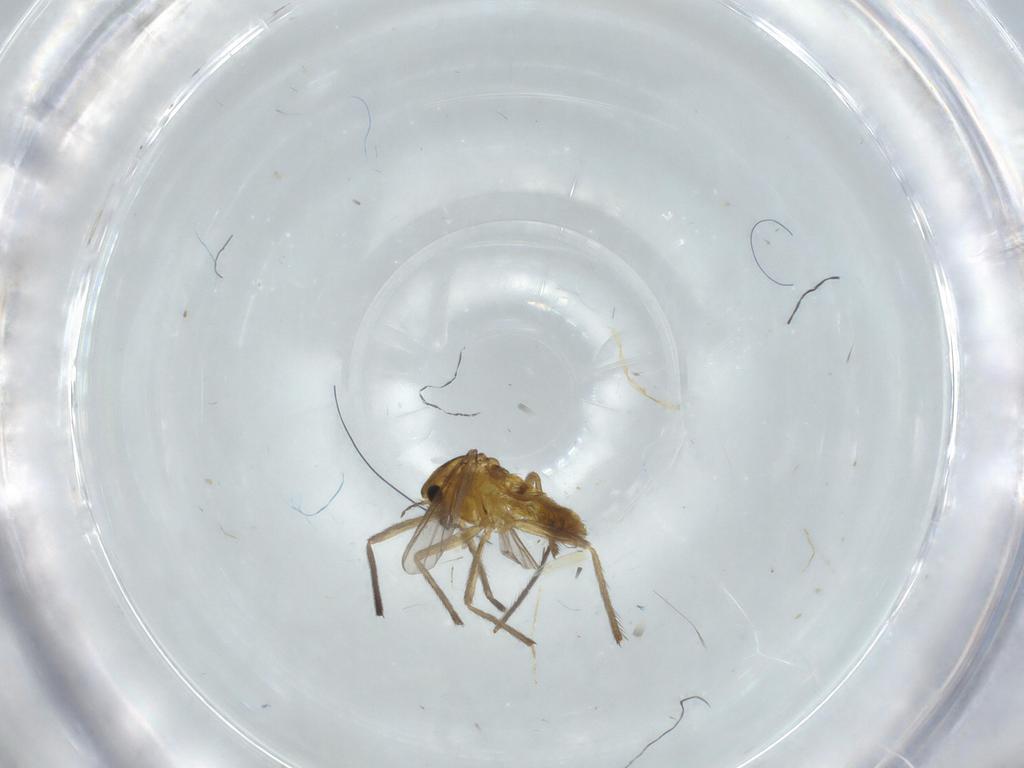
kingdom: Animalia
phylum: Arthropoda
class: Insecta
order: Diptera
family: Chironomidae
